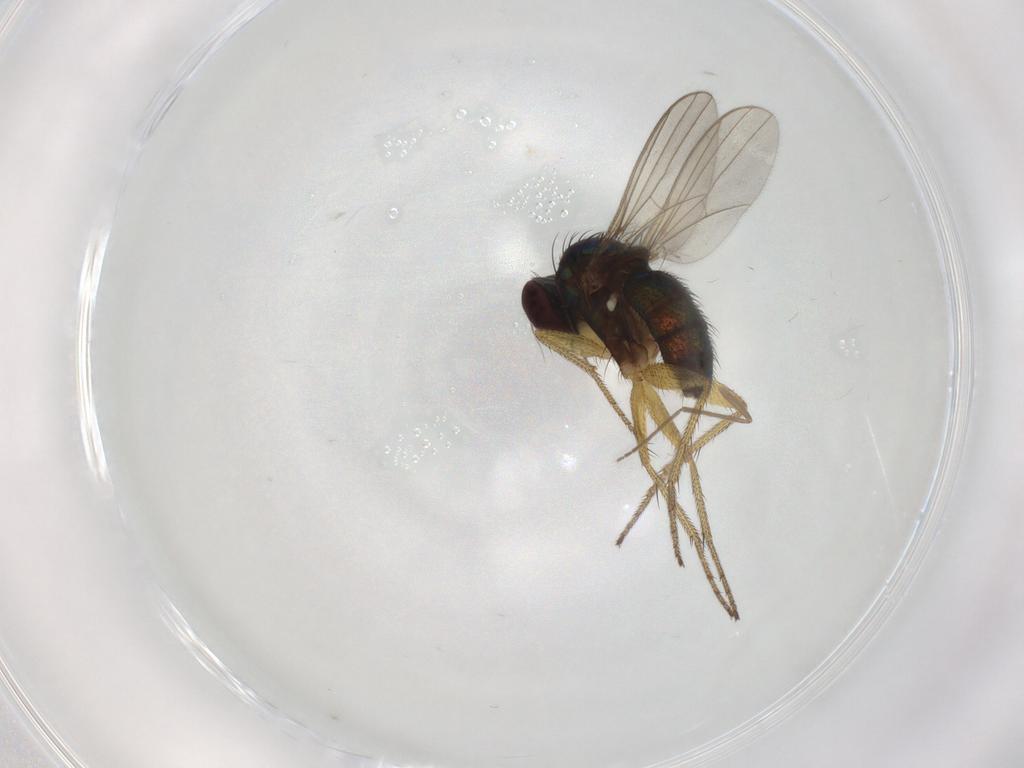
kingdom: Animalia
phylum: Arthropoda
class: Insecta
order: Diptera
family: Chironomidae
